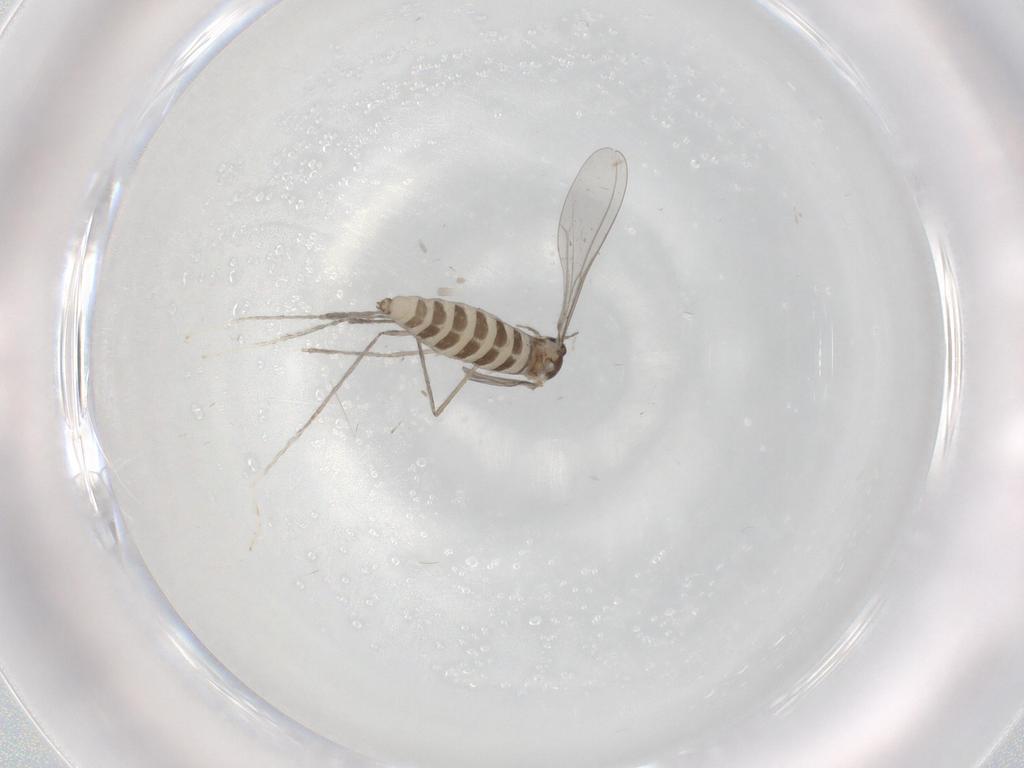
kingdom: Animalia
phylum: Arthropoda
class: Insecta
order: Diptera
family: Cecidomyiidae
